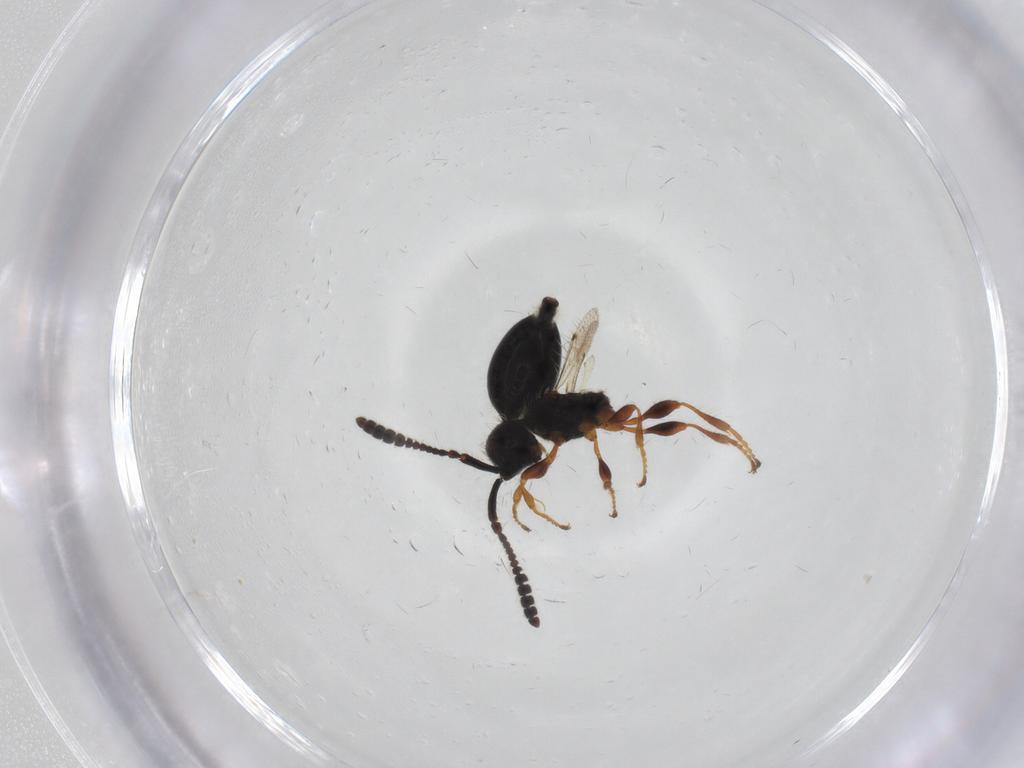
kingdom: Animalia
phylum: Arthropoda
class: Insecta
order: Hymenoptera
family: Diapriidae
